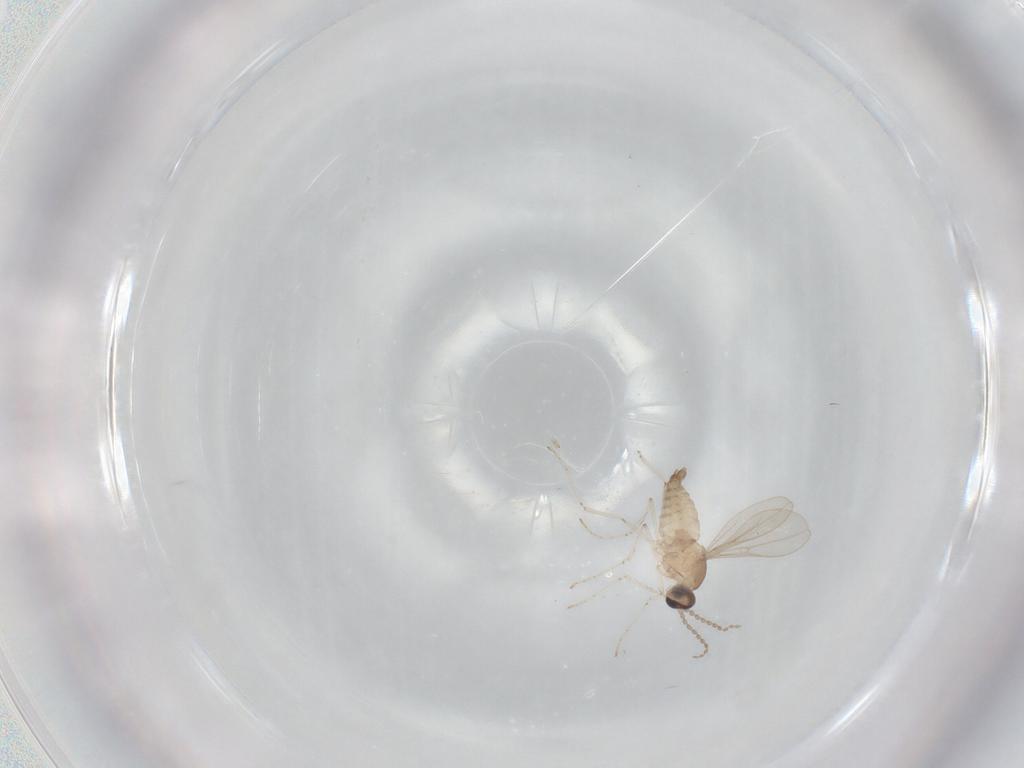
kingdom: Animalia
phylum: Arthropoda
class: Insecta
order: Diptera
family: Cecidomyiidae
